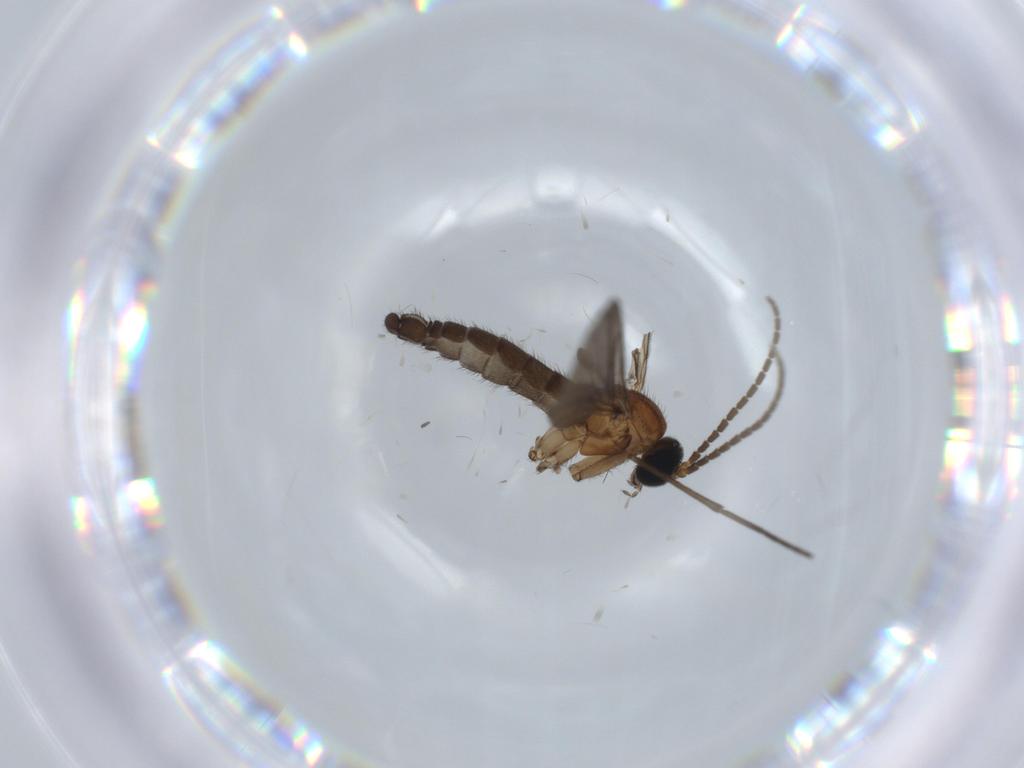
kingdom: Animalia
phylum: Arthropoda
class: Insecta
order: Diptera
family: Sciaridae
